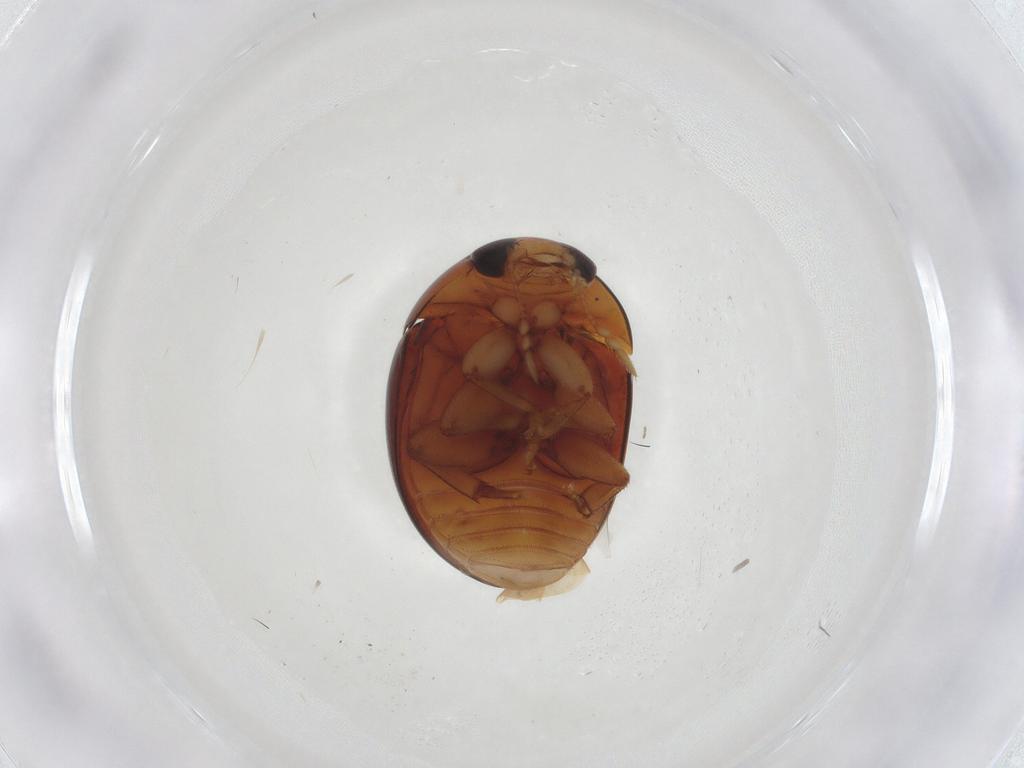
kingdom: Animalia
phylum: Arthropoda
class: Insecta
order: Coleoptera
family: Phalacridae
